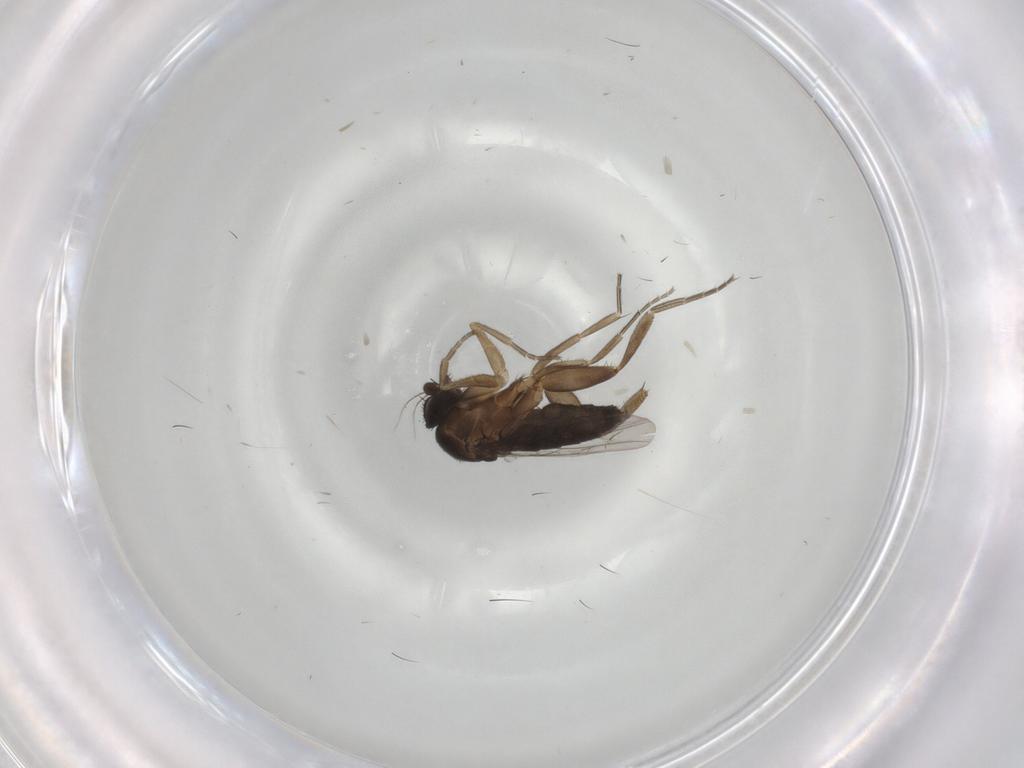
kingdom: Animalia
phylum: Arthropoda
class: Insecta
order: Diptera
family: Phoridae
